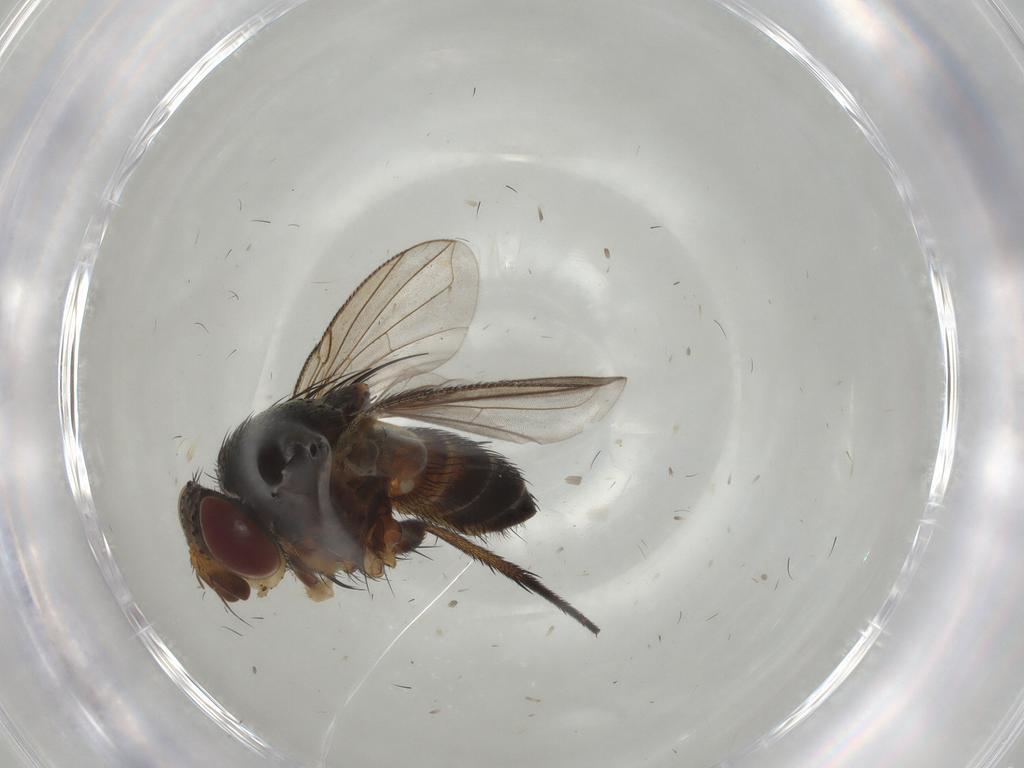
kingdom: Animalia
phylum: Arthropoda
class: Insecta
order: Diptera
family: Tachinidae
